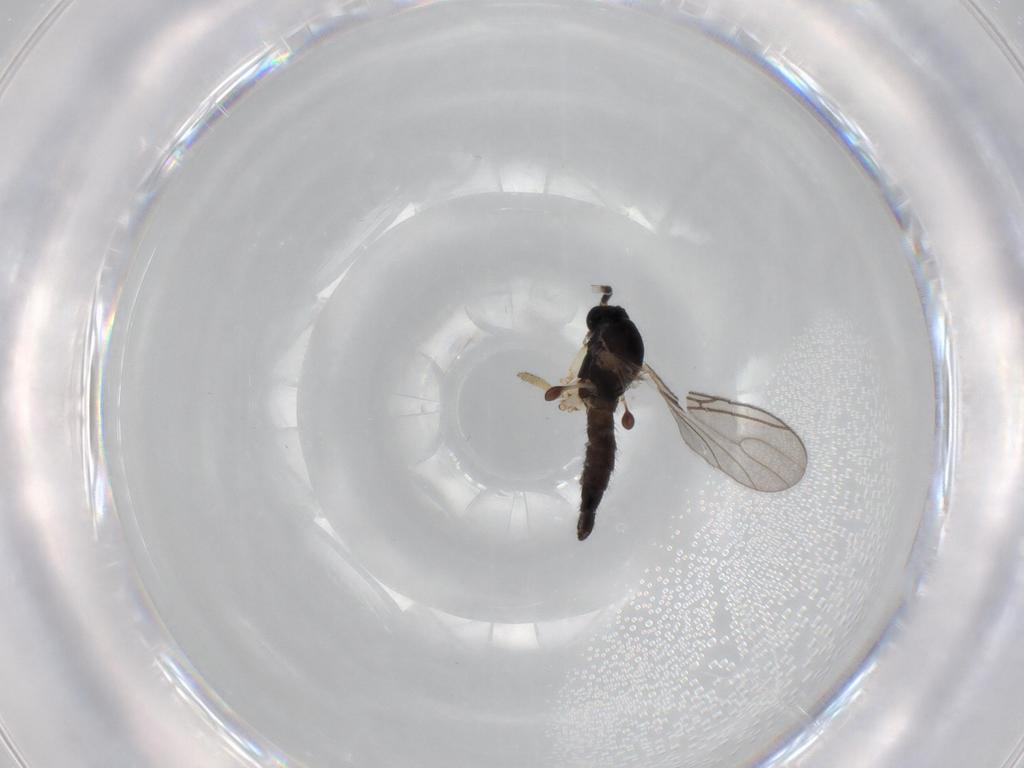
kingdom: Animalia
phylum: Arthropoda
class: Insecta
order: Diptera
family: Sciaridae
